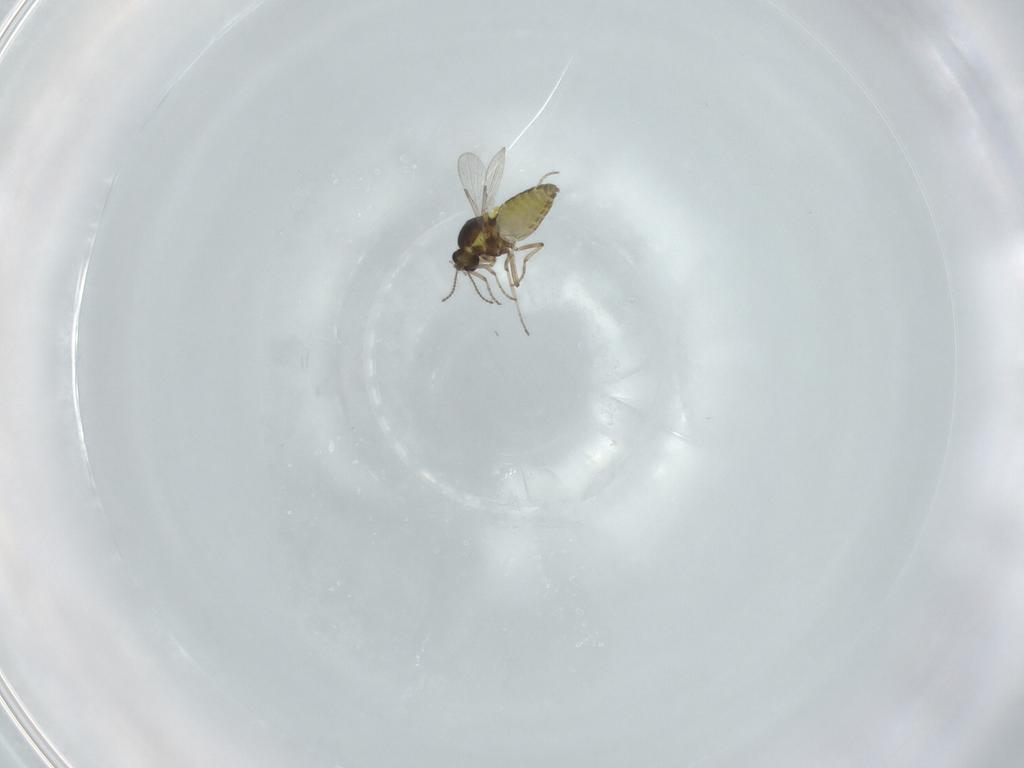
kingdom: Animalia
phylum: Arthropoda
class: Insecta
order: Diptera
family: Ceratopogonidae
